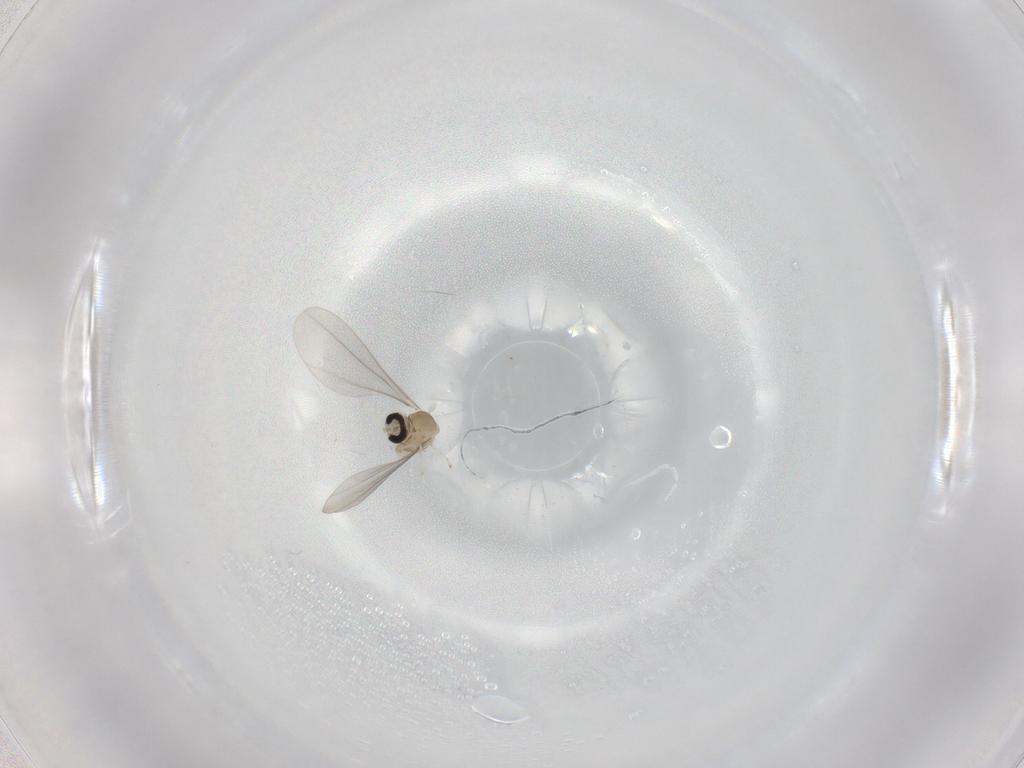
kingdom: Animalia
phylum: Arthropoda
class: Insecta
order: Diptera
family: Cecidomyiidae
